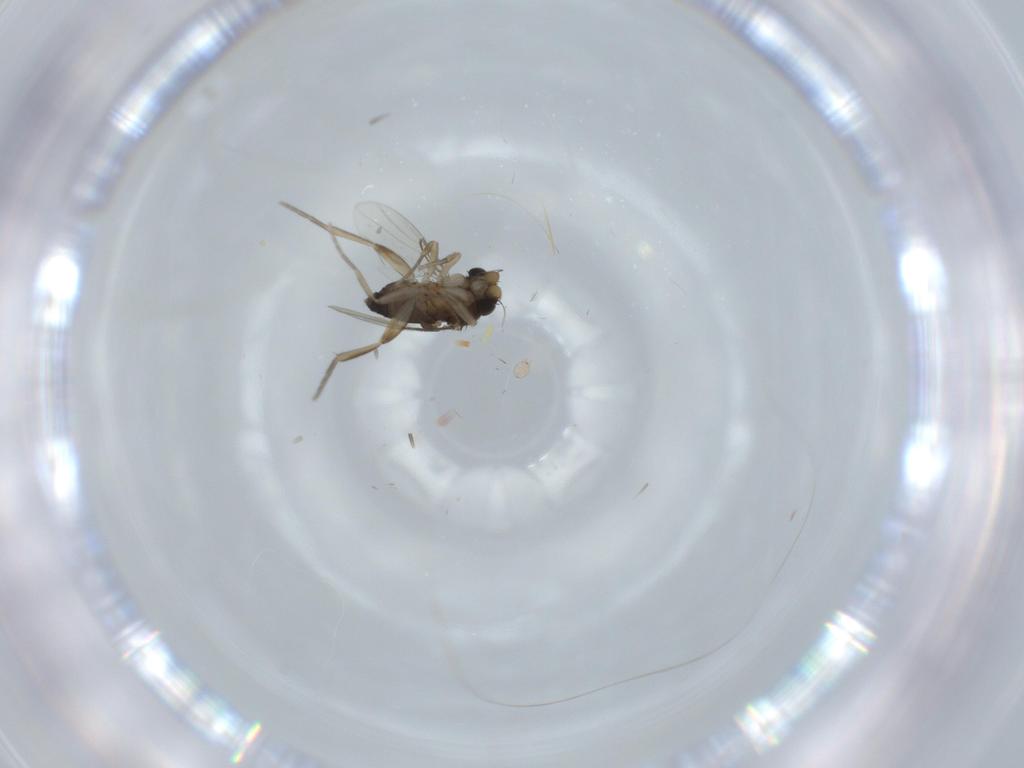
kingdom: Animalia
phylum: Arthropoda
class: Insecta
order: Diptera
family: Phoridae
